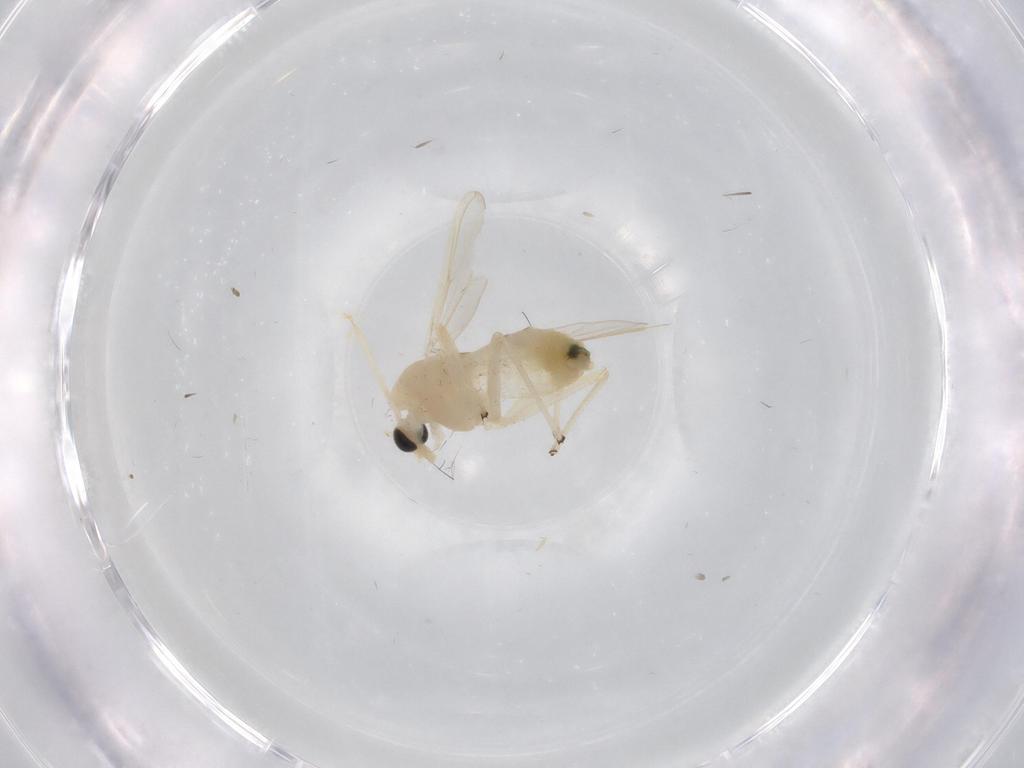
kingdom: Animalia
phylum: Arthropoda
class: Insecta
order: Diptera
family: Chironomidae
